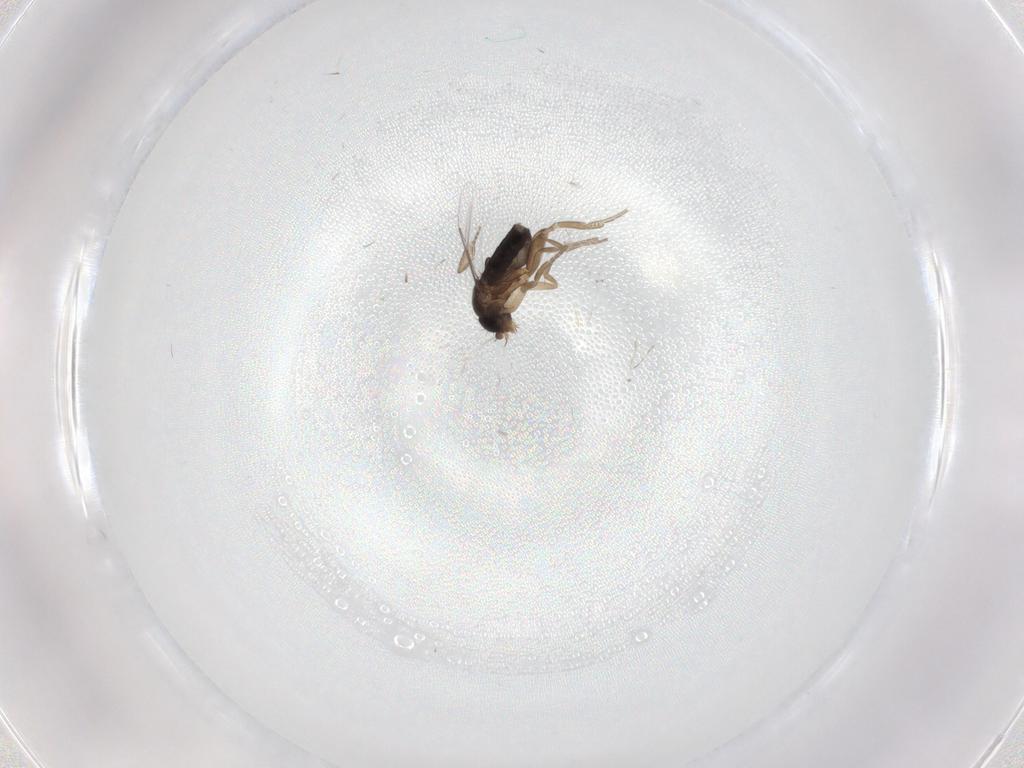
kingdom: Animalia
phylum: Arthropoda
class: Insecta
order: Diptera
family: Phoridae
